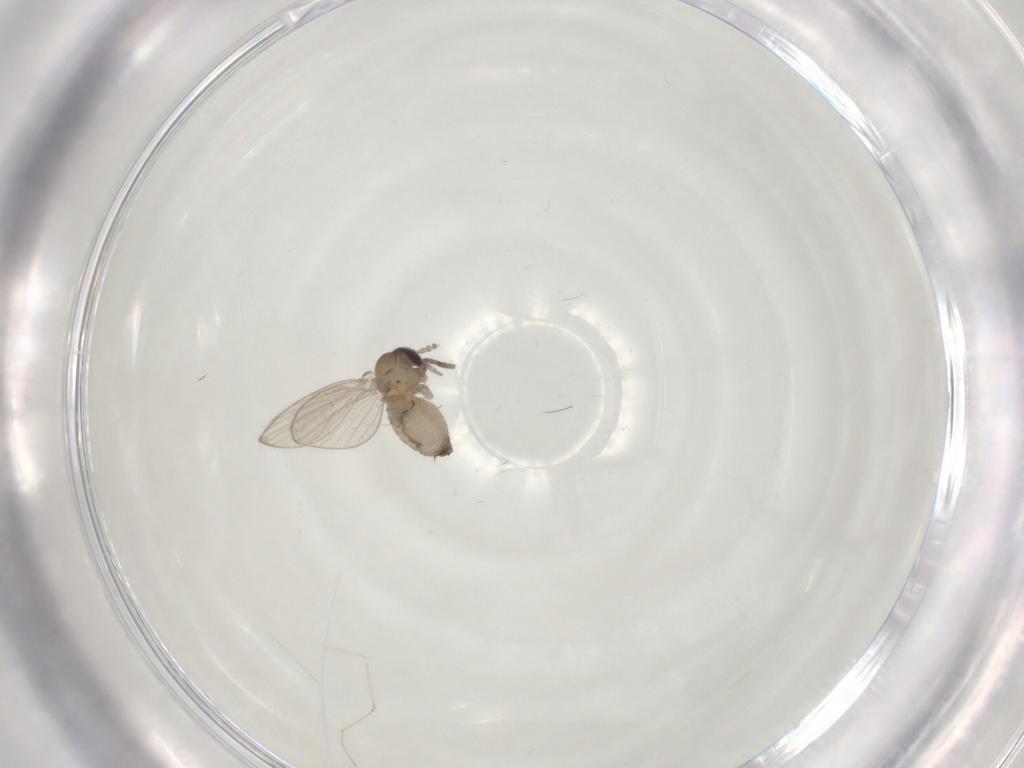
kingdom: Animalia
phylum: Arthropoda
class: Insecta
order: Diptera
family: Psychodidae
